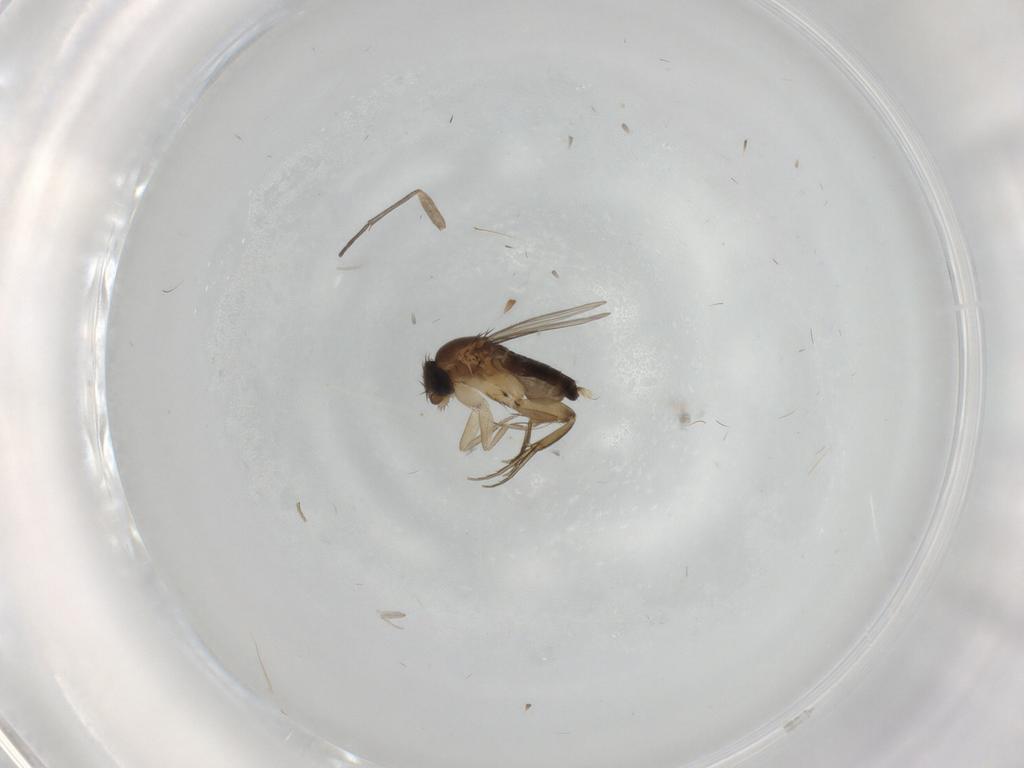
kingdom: Animalia
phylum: Arthropoda
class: Insecta
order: Diptera
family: Phoridae
